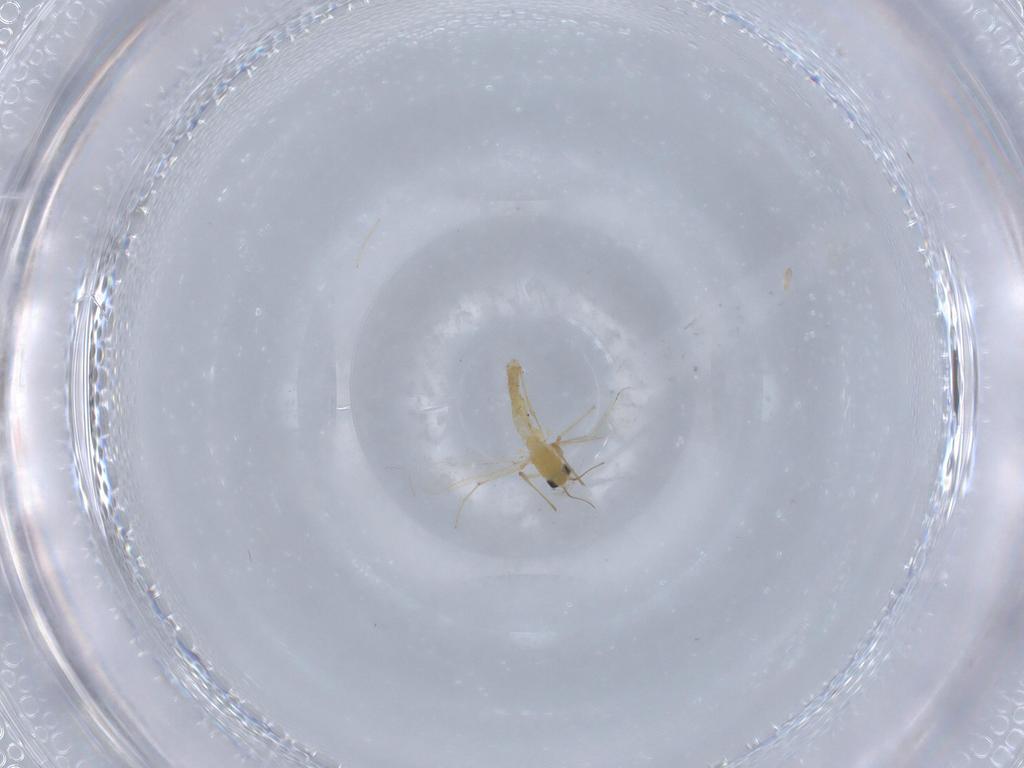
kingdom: Animalia
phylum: Arthropoda
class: Insecta
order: Diptera
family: Chironomidae
